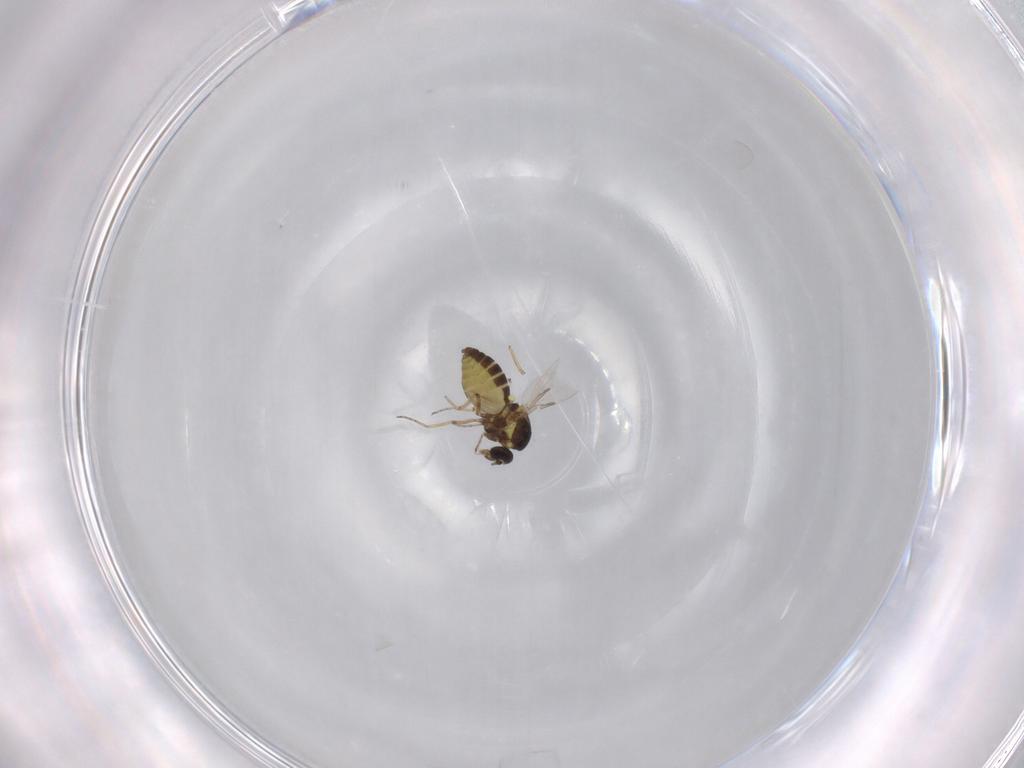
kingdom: Animalia
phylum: Arthropoda
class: Insecta
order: Diptera
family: Ceratopogonidae
